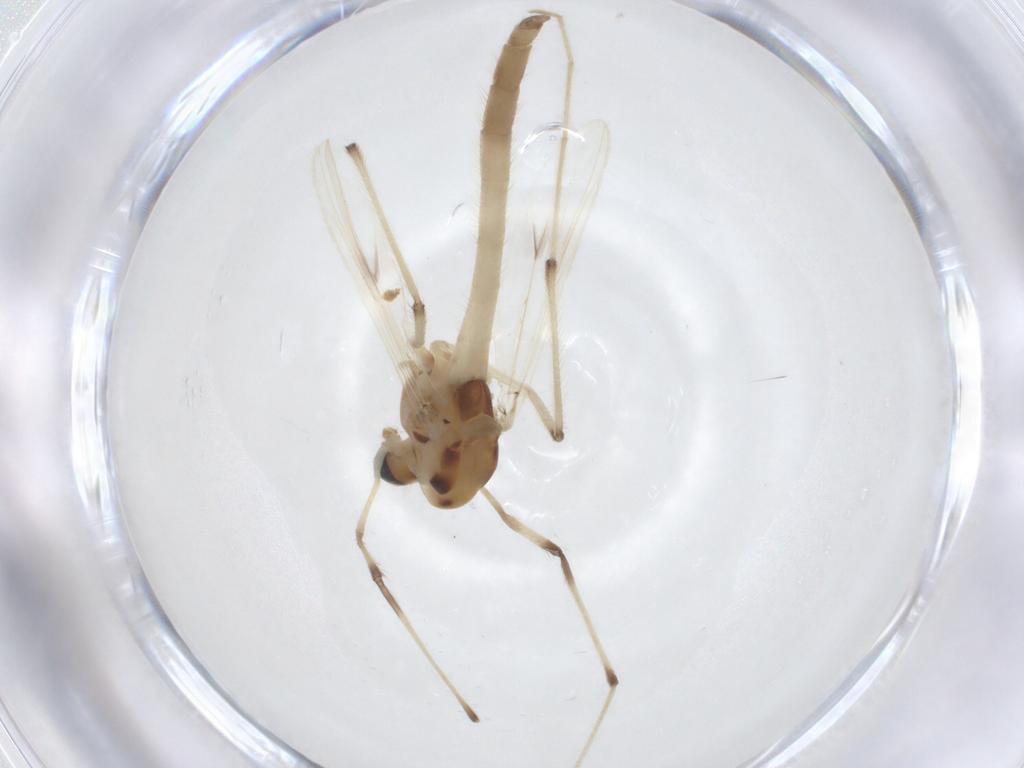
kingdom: Animalia
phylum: Arthropoda
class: Insecta
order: Diptera
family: Chironomidae
